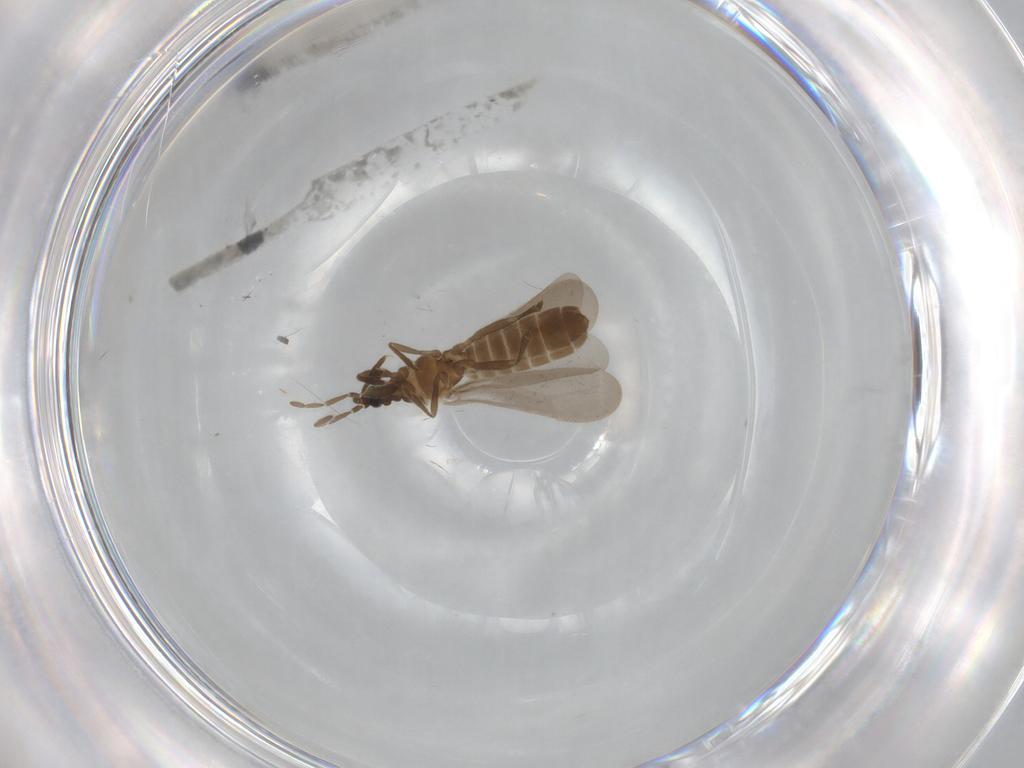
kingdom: Animalia
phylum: Arthropoda
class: Insecta
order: Hemiptera
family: Enicocephalidae
